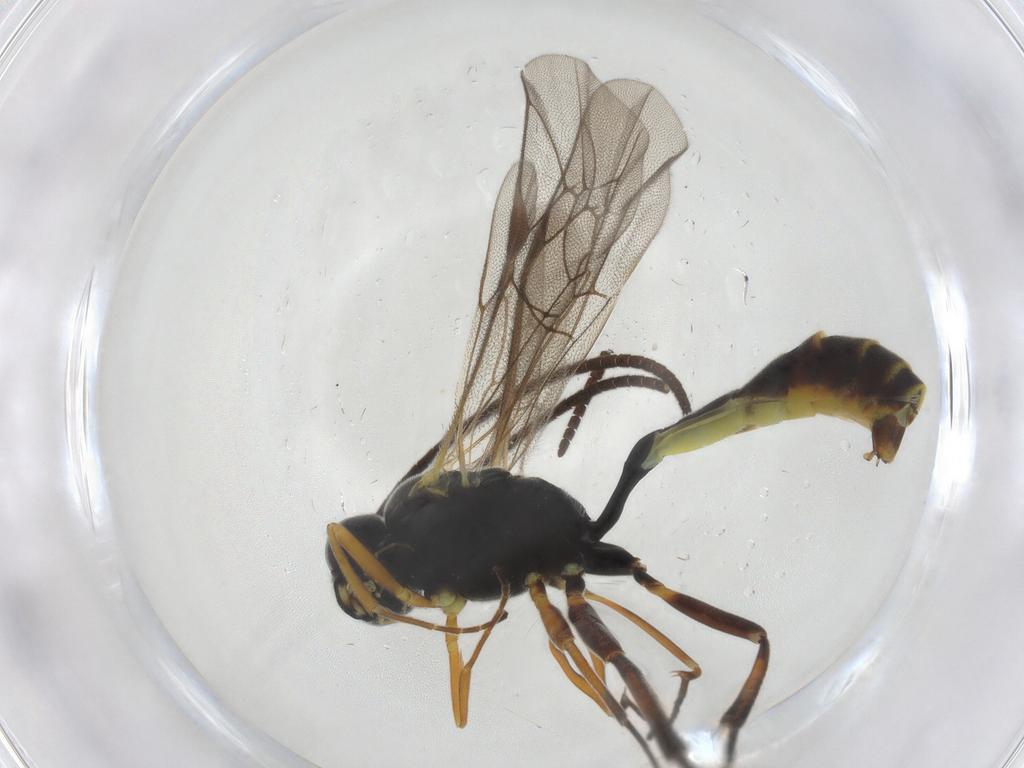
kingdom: Animalia
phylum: Arthropoda
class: Insecta
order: Hymenoptera
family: Ichneumonidae
